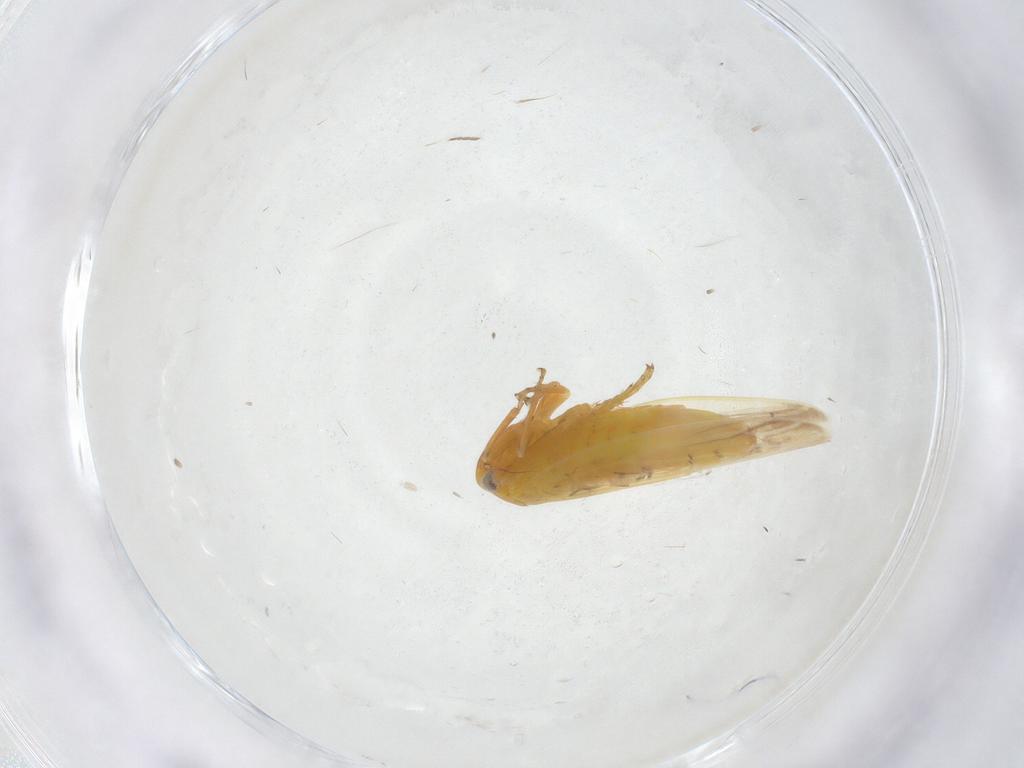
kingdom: Animalia
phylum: Arthropoda
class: Insecta
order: Hemiptera
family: Cicadellidae
